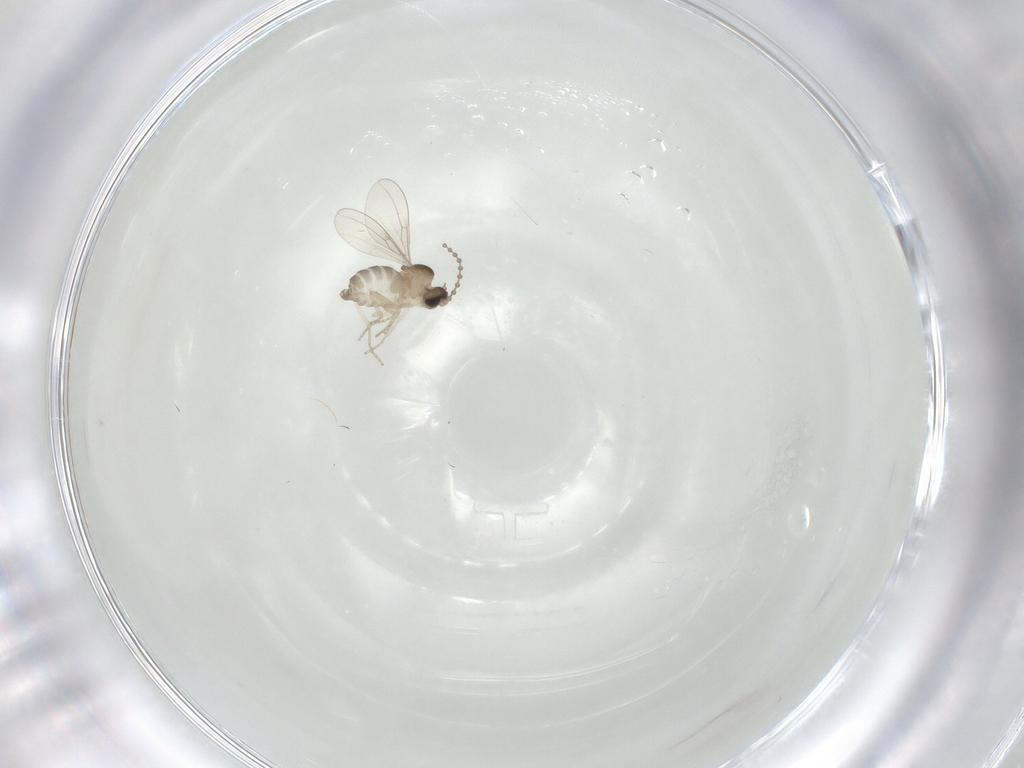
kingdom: Animalia
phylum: Arthropoda
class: Insecta
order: Diptera
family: Cecidomyiidae
